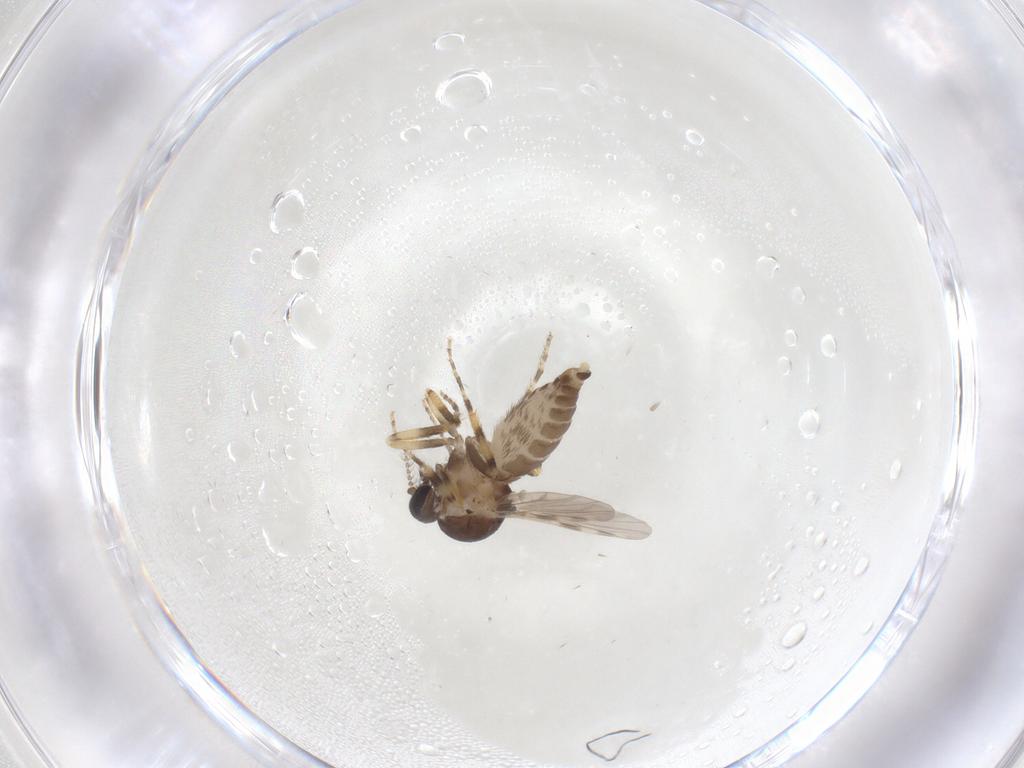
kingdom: Animalia
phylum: Arthropoda
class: Insecta
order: Diptera
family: Ceratopogonidae
